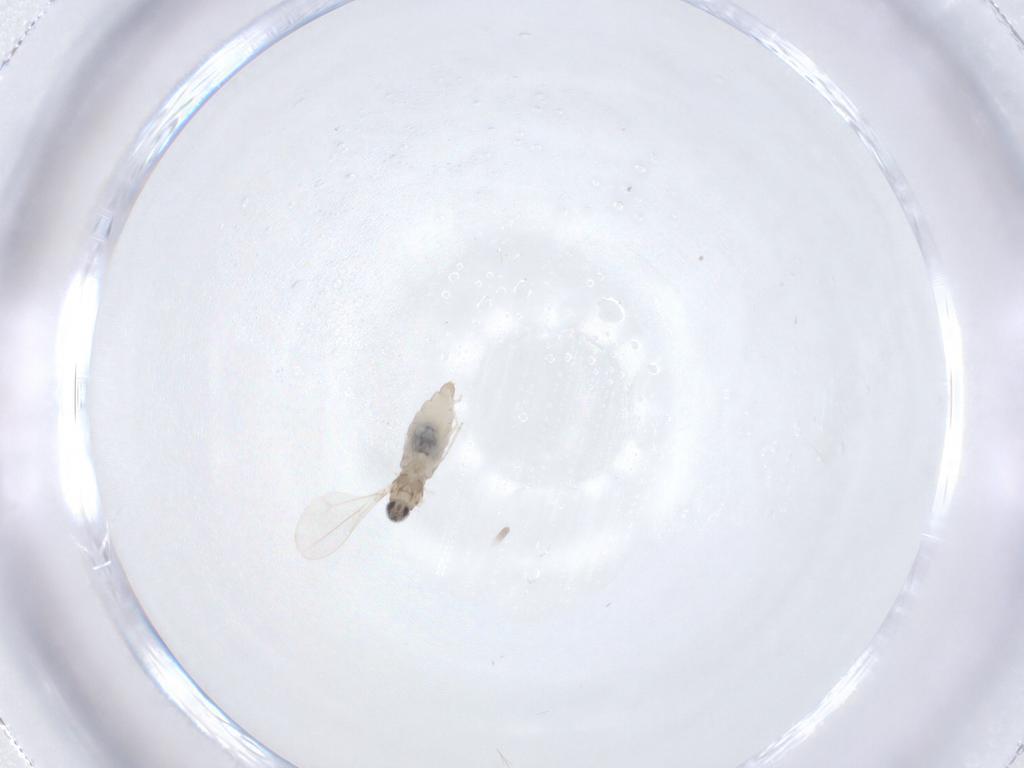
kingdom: Animalia
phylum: Arthropoda
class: Insecta
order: Diptera
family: Cecidomyiidae
